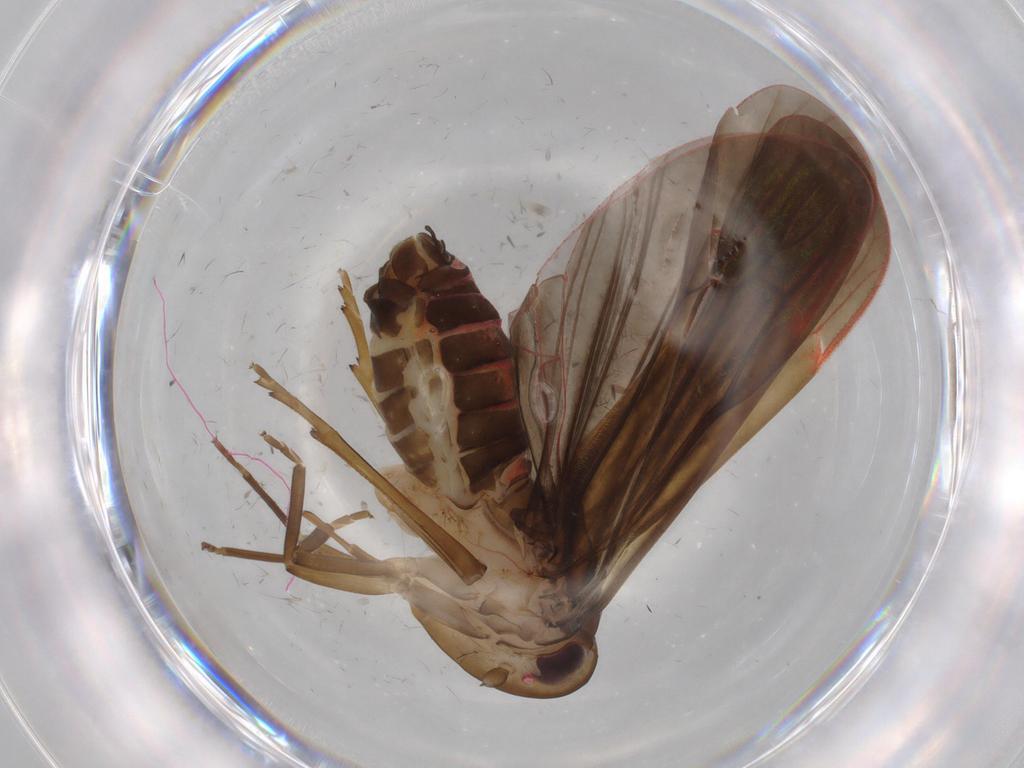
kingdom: Animalia
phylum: Arthropoda
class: Insecta
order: Hemiptera
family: Achilidae
